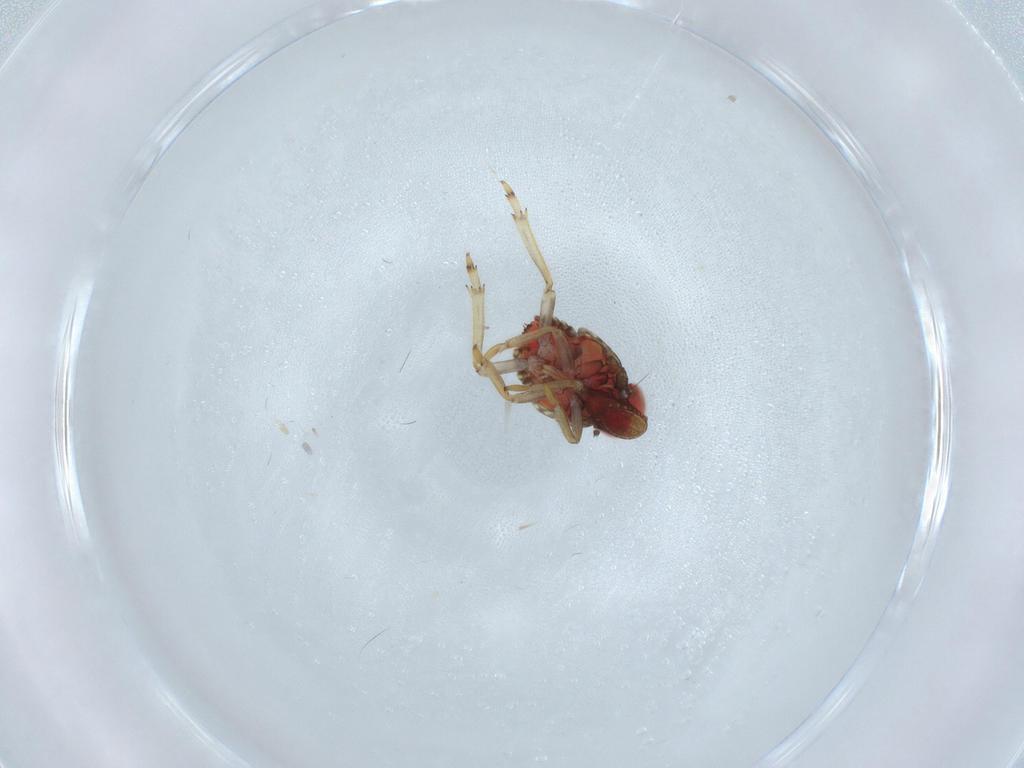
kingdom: Animalia
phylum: Arthropoda
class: Insecta
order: Hemiptera
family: Issidae
